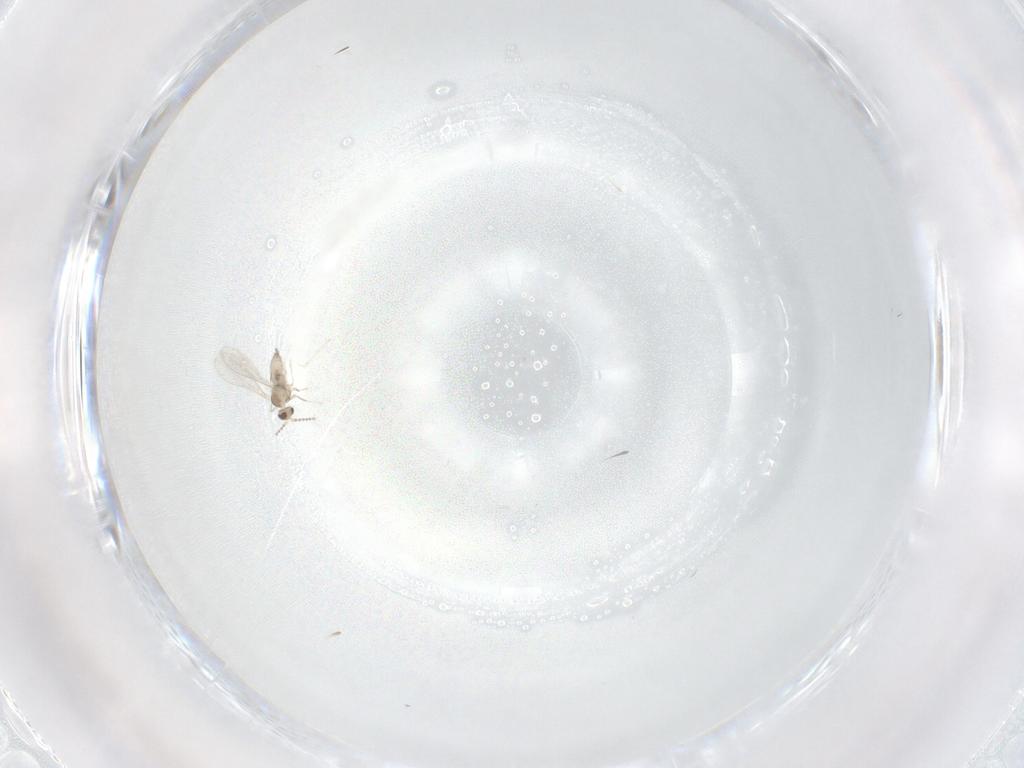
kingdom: Animalia
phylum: Arthropoda
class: Insecta
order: Diptera
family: Cecidomyiidae
